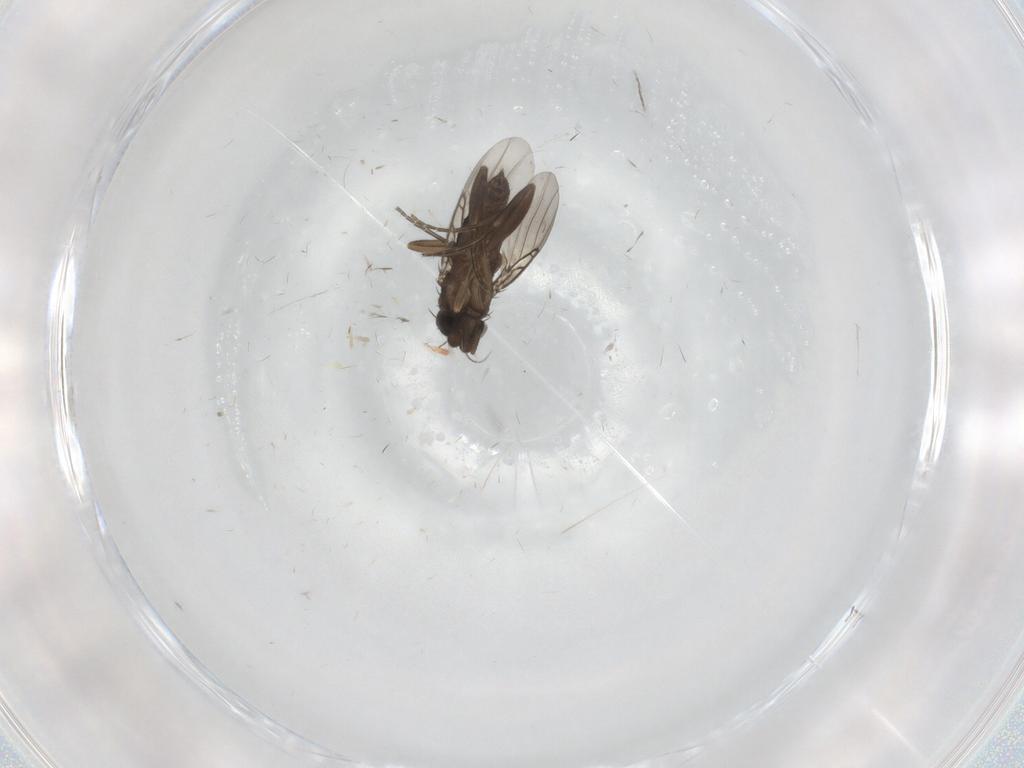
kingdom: Animalia
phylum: Arthropoda
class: Insecta
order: Diptera
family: Phoridae
